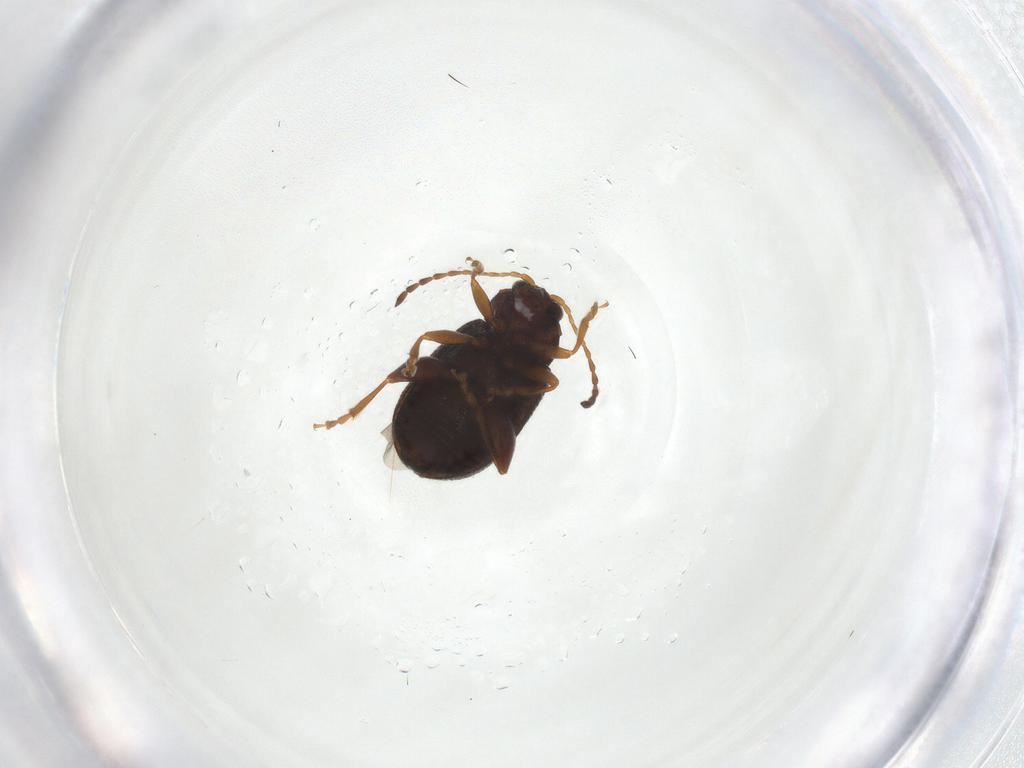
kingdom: Animalia
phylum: Arthropoda
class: Insecta
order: Coleoptera
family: Chrysomelidae
